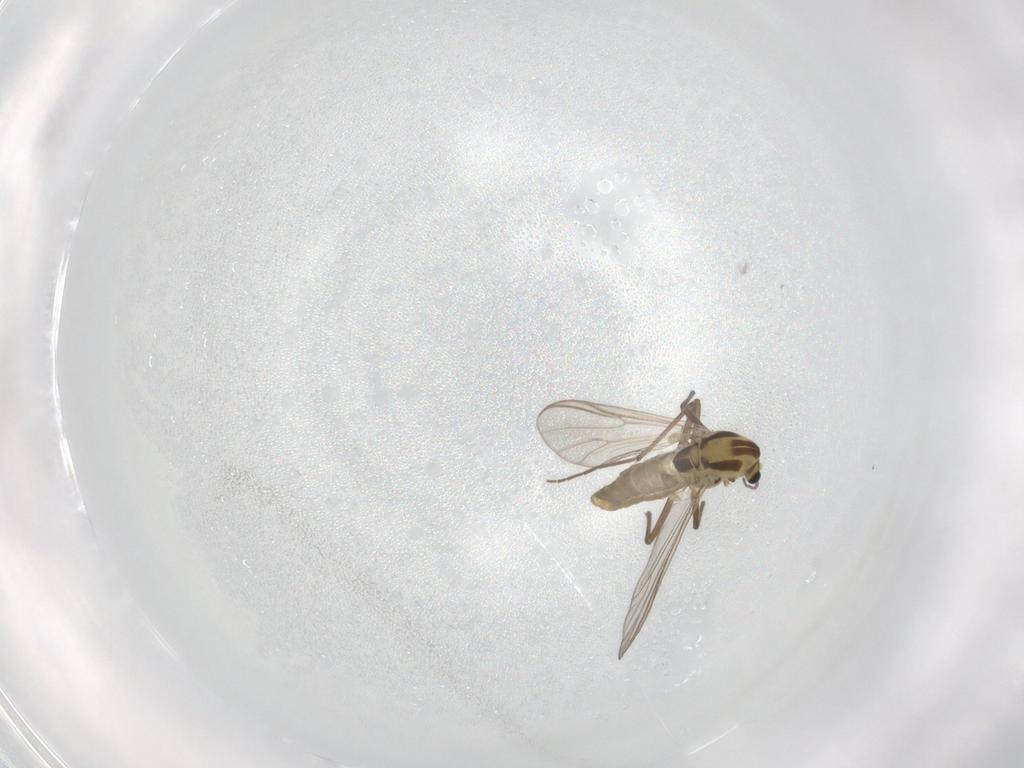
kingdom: Animalia
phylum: Arthropoda
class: Insecta
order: Diptera
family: Chironomidae
